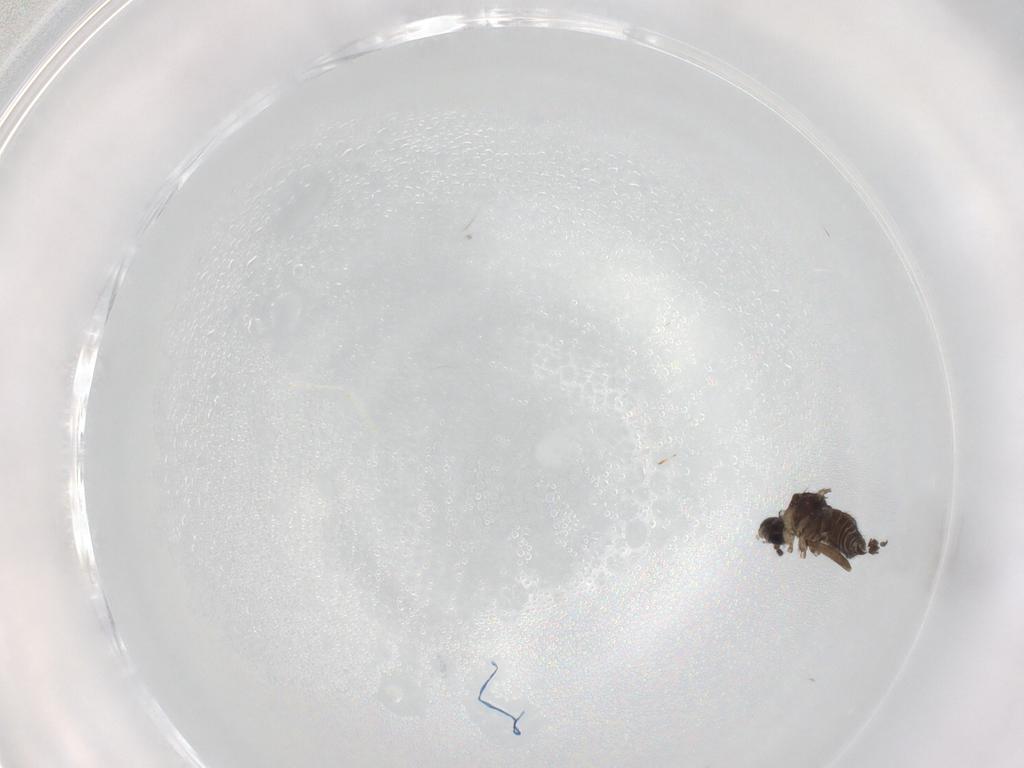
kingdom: Animalia
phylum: Arthropoda
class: Insecta
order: Diptera
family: Sciaridae
